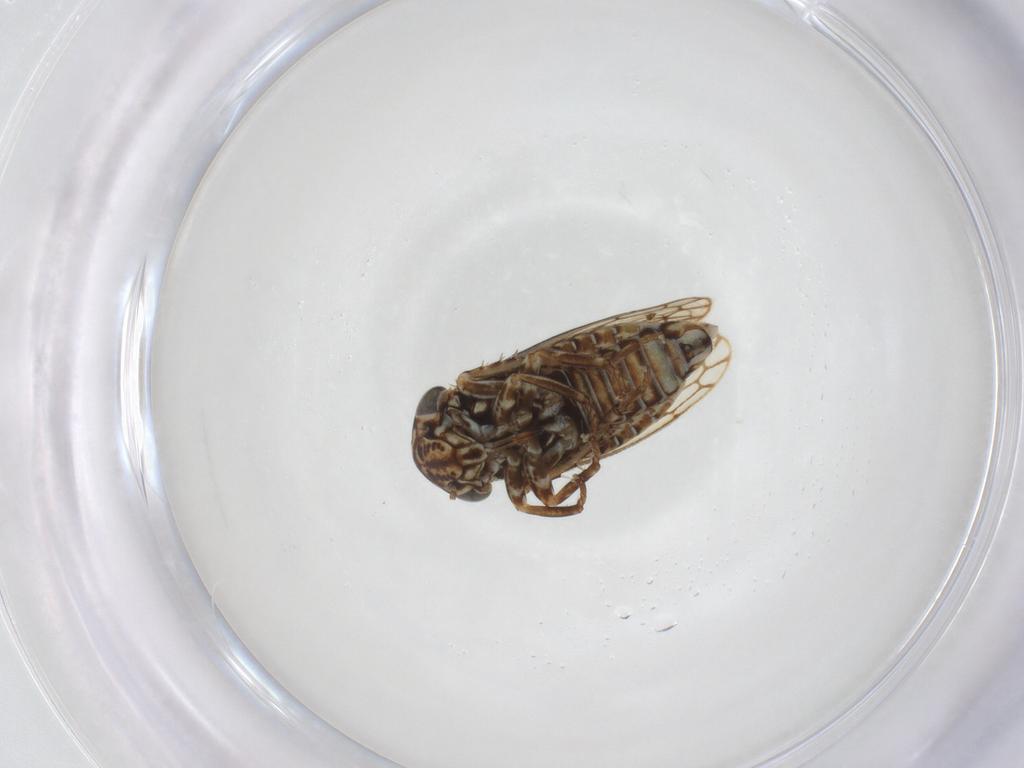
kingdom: Animalia
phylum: Arthropoda
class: Insecta
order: Hemiptera
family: Cicadellidae
